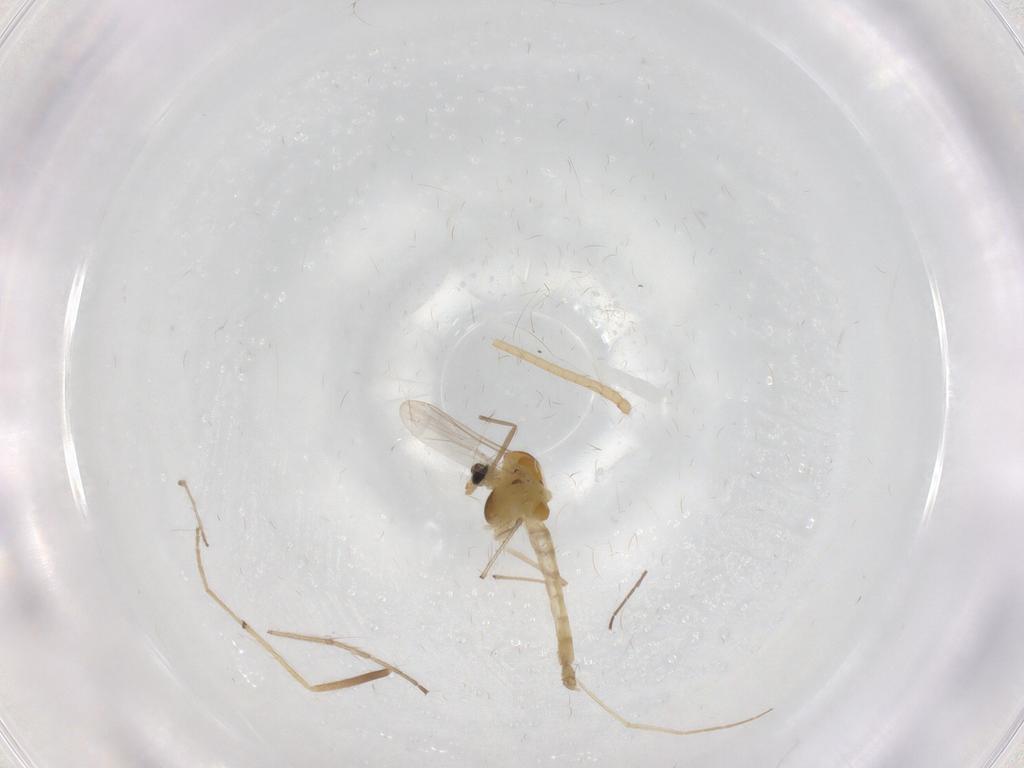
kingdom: Animalia
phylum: Arthropoda
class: Insecta
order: Diptera
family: Chironomidae
